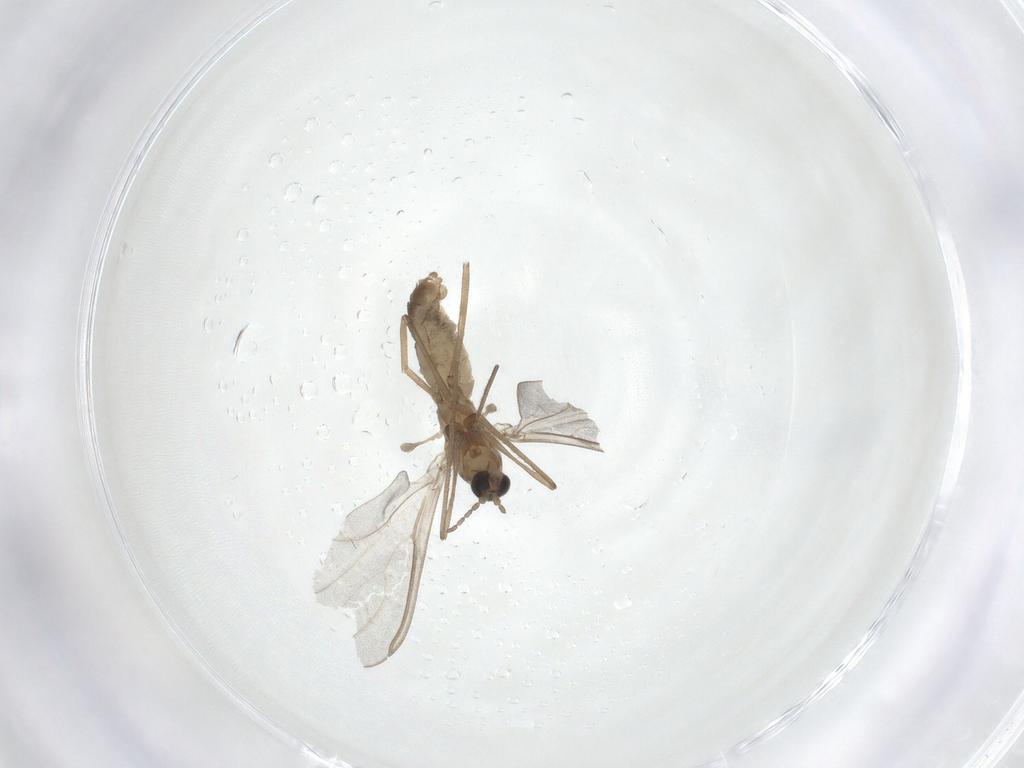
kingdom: Animalia
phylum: Arthropoda
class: Insecta
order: Diptera
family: Cecidomyiidae
